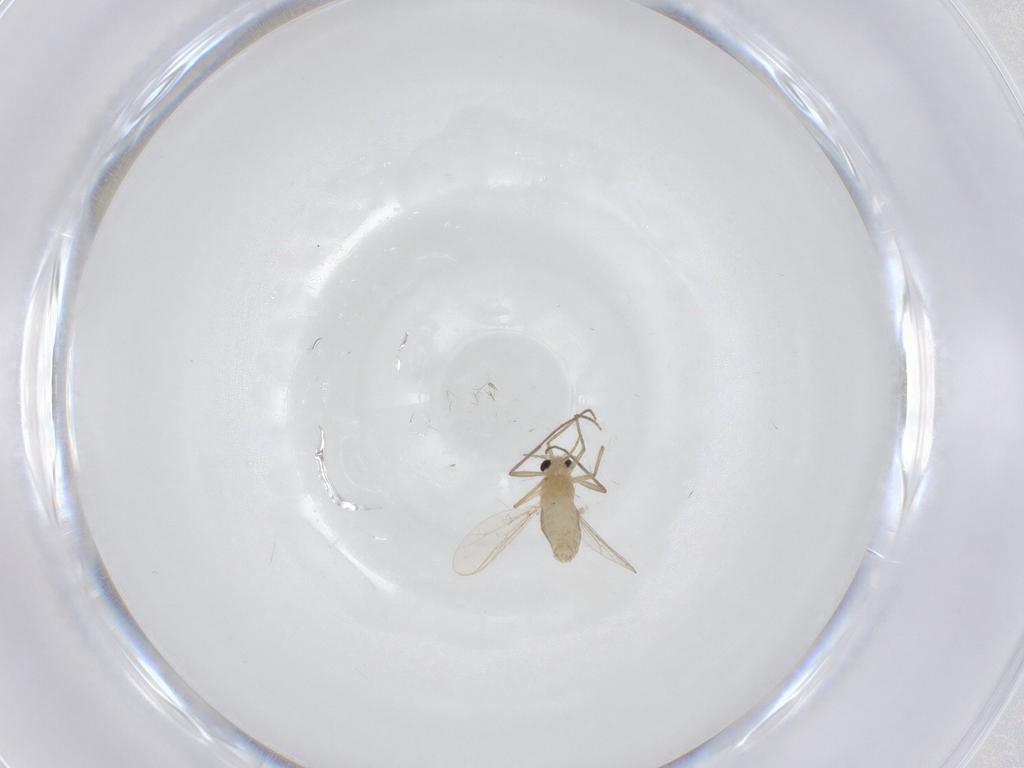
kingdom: Animalia
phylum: Arthropoda
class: Insecta
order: Diptera
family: Chironomidae
